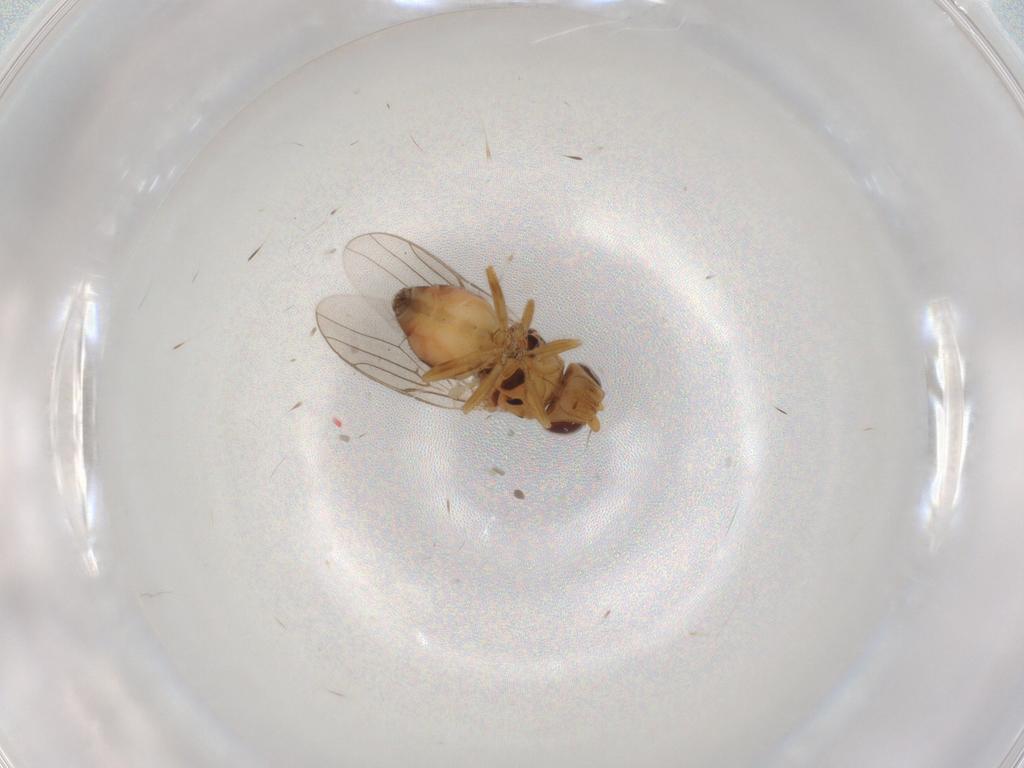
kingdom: Animalia
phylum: Arthropoda
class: Insecta
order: Diptera
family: Chloropidae
